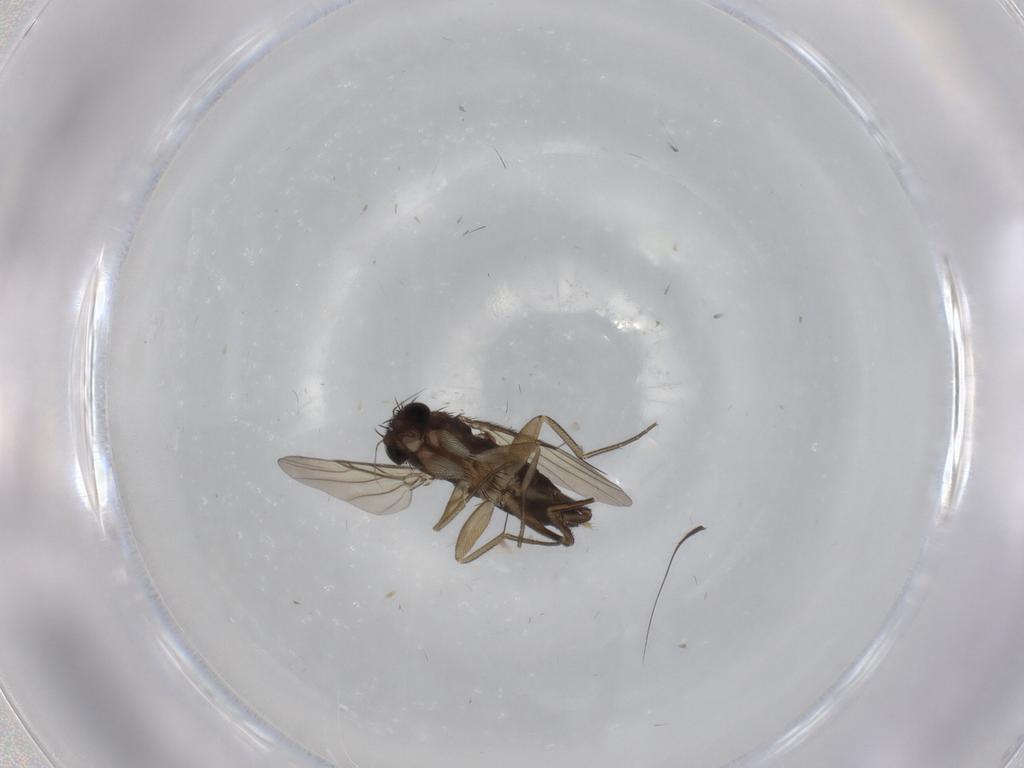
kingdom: Animalia
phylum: Arthropoda
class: Insecta
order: Diptera
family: Phoridae
